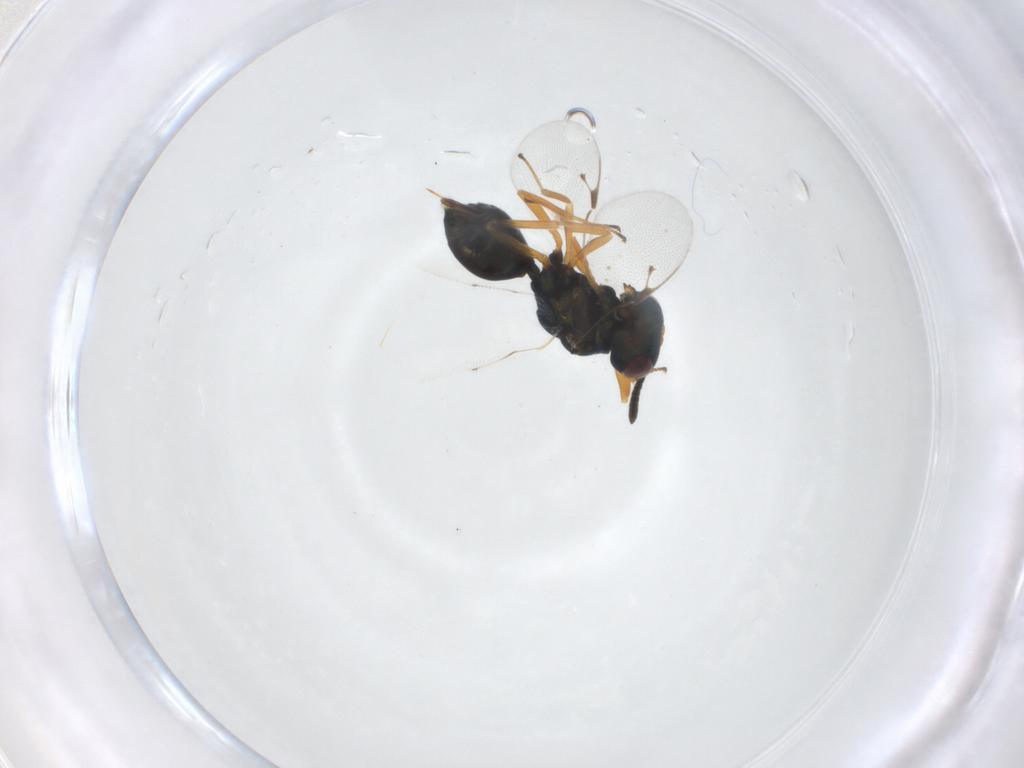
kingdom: Animalia
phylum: Arthropoda
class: Insecta
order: Hymenoptera
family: Pteromalidae
